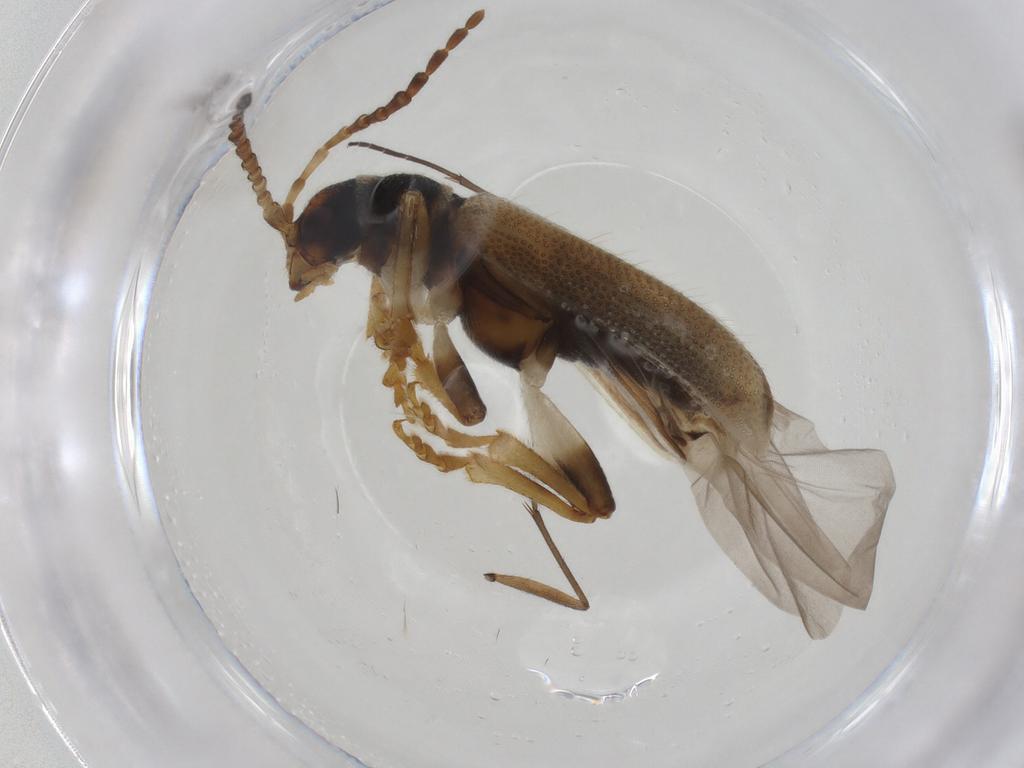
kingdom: Animalia
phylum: Arthropoda
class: Insecta
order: Coleoptera
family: Chrysomelidae
